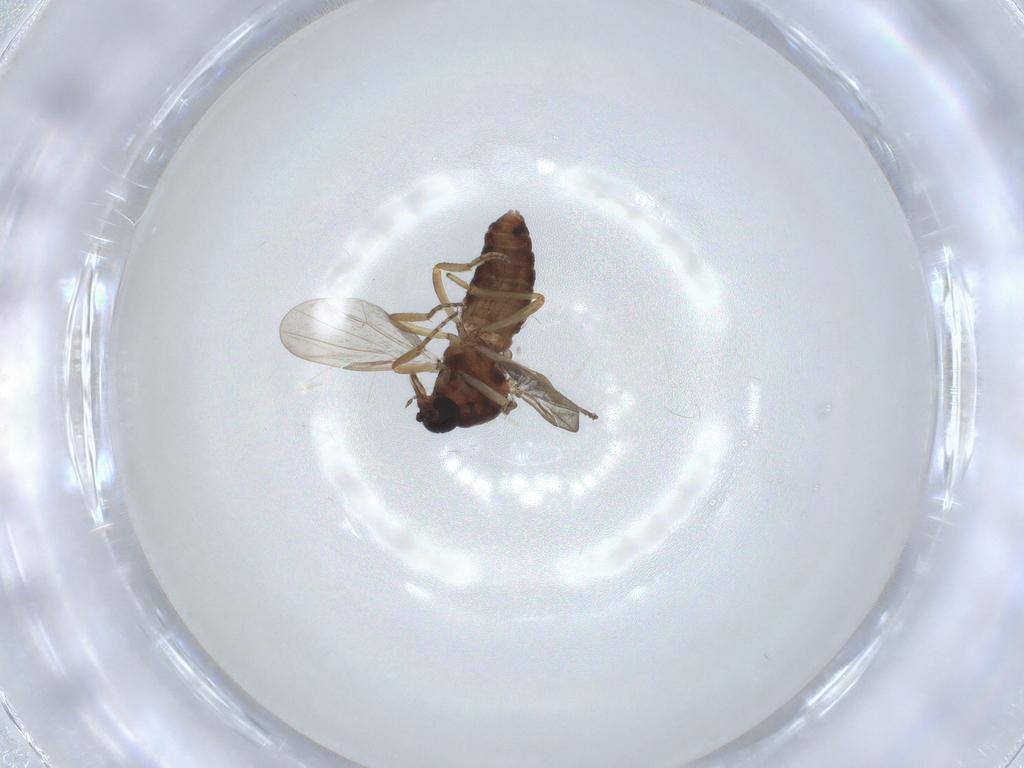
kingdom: Animalia
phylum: Arthropoda
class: Insecta
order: Diptera
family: Ceratopogonidae
